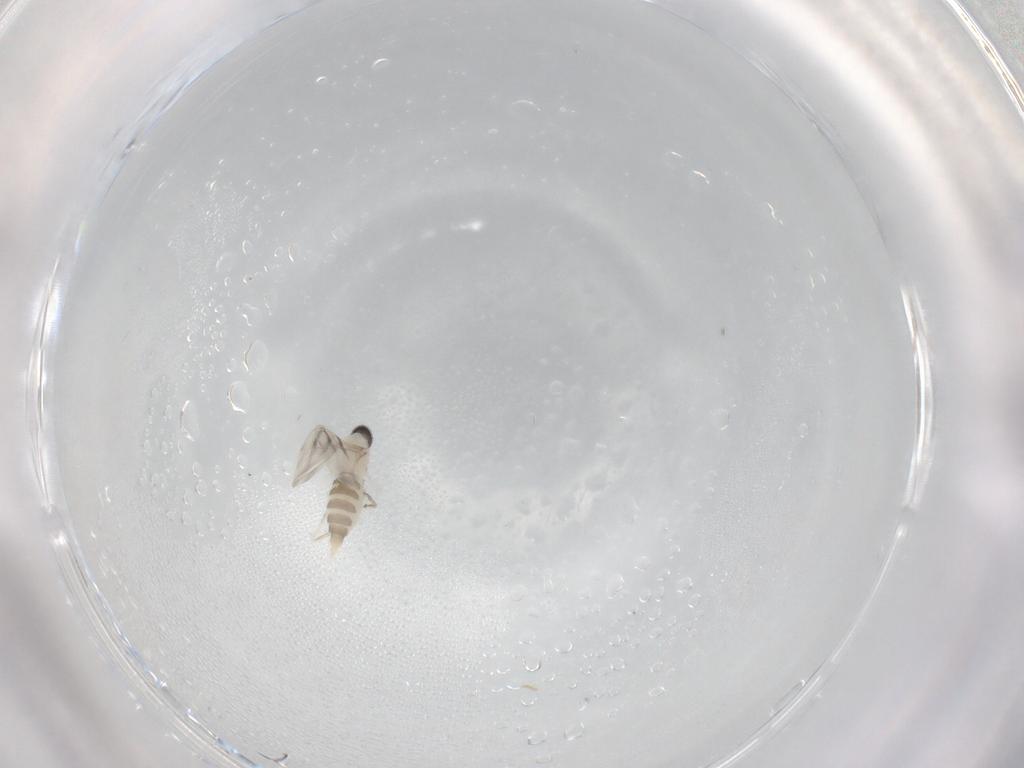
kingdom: Animalia
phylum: Arthropoda
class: Insecta
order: Diptera
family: Cecidomyiidae
